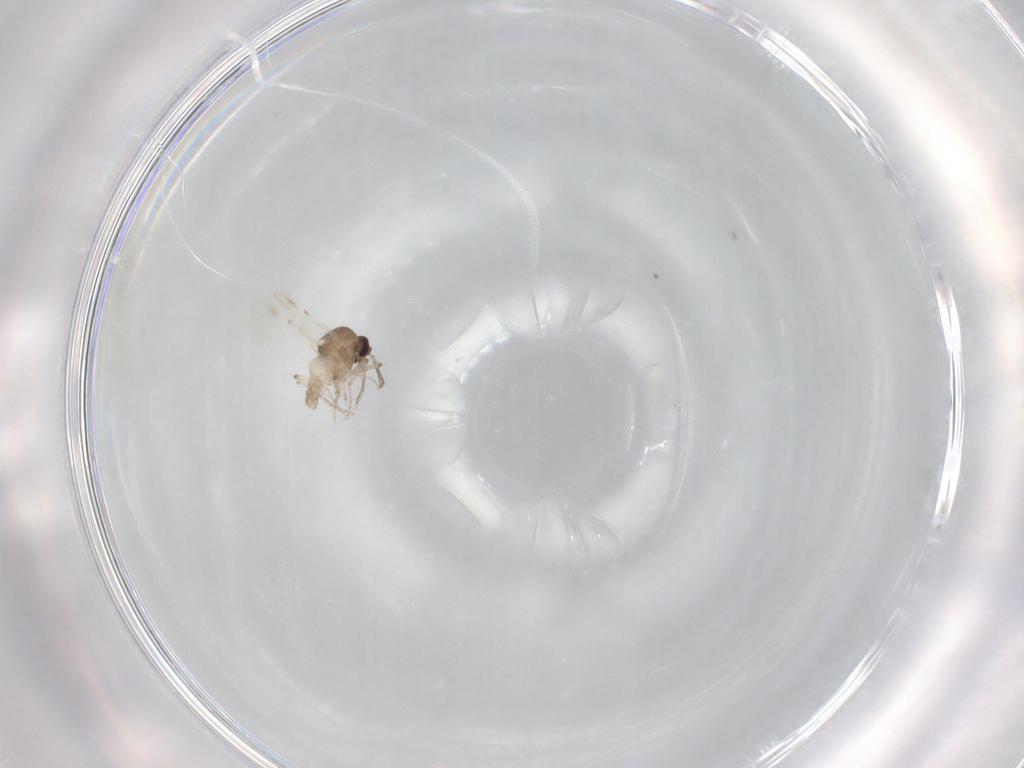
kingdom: Animalia
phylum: Arthropoda
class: Insecta
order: Diptera
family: Ceratopogonidae
